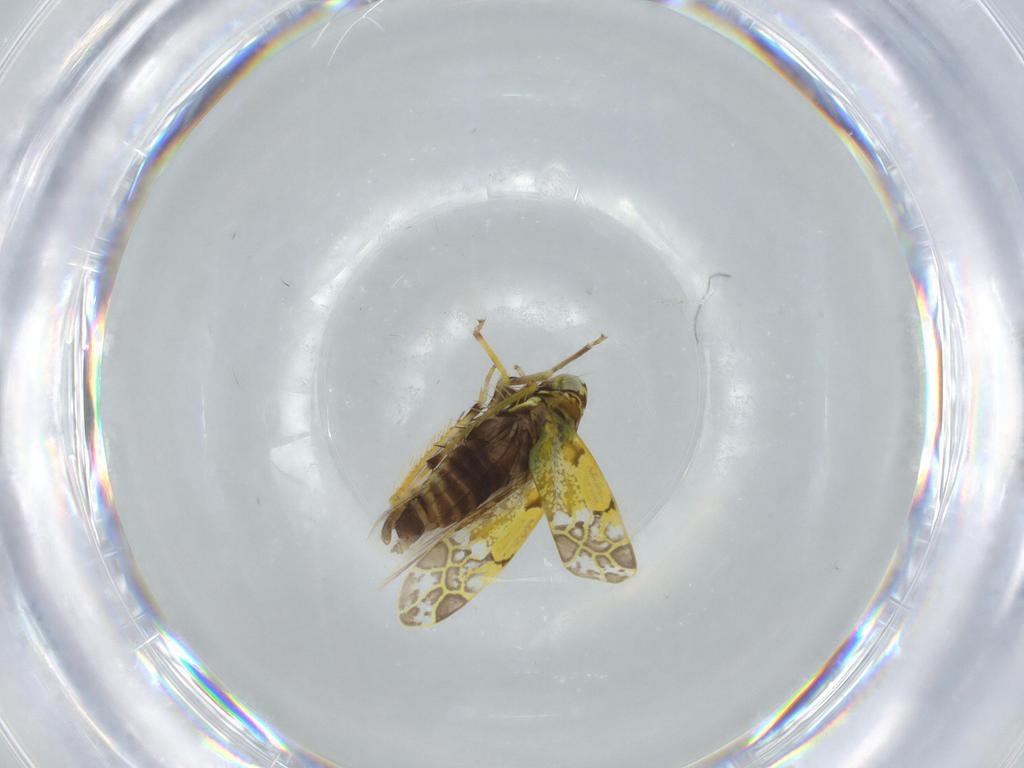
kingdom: Animalia
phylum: Arthropoda
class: Insecta
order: Hemiptera
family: Cicadellidae
